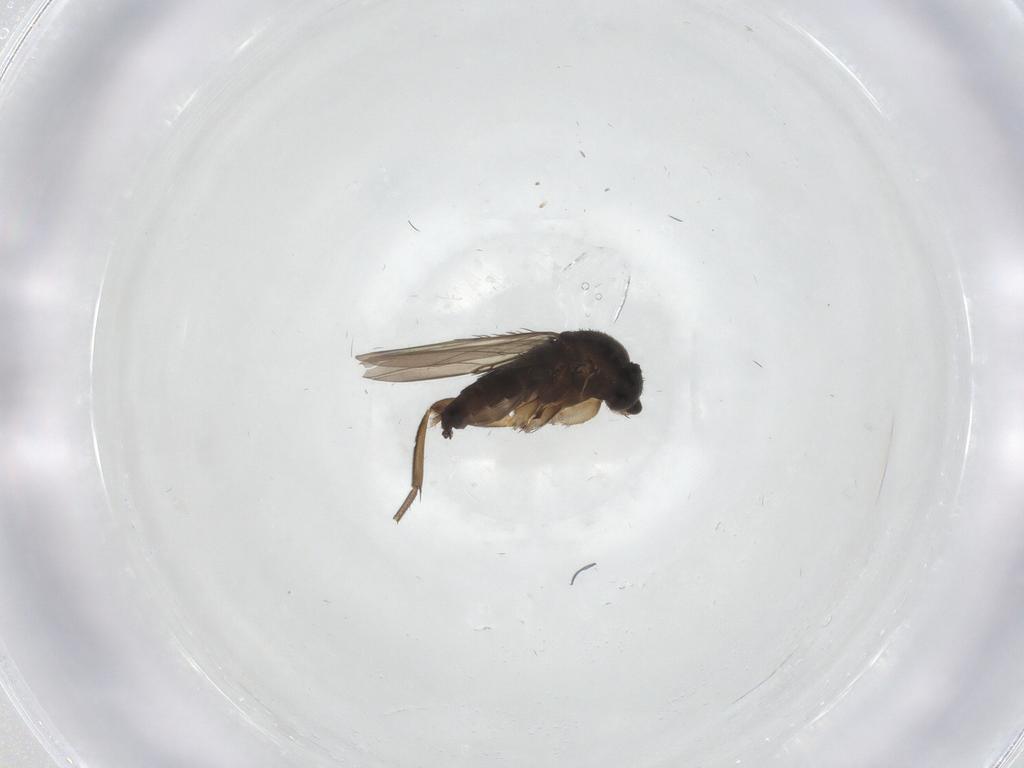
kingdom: Animalia
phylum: Arthropoda
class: Insecta
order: Diptera
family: Phoridae
